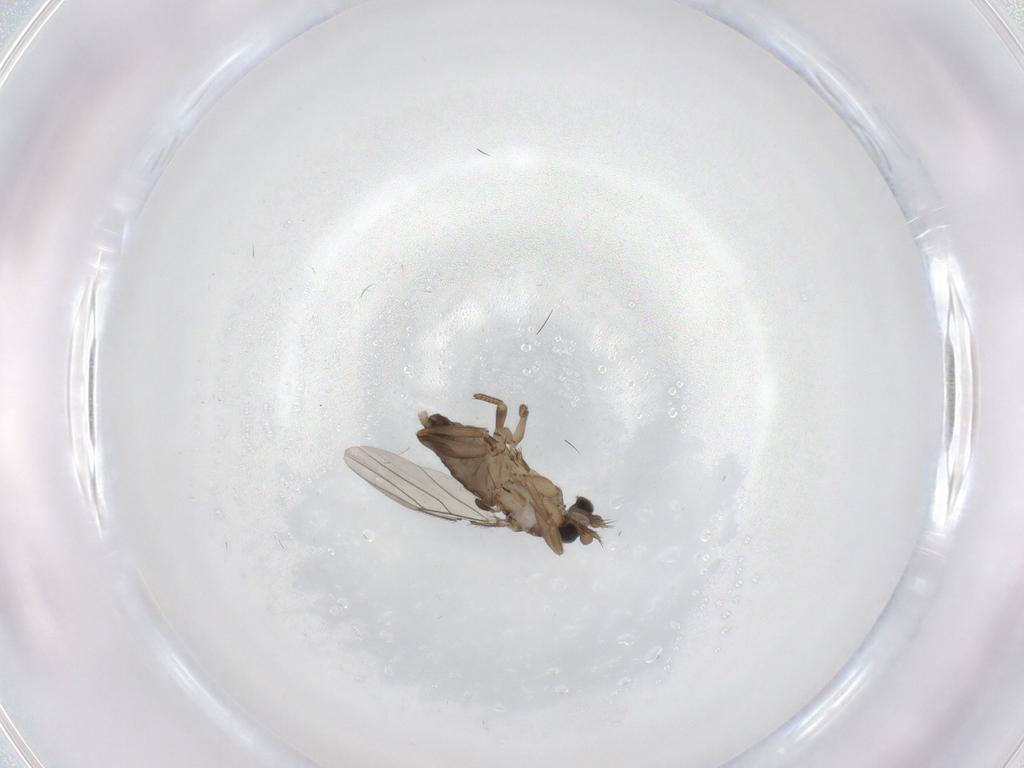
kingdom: Animalia
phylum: Arthropoda
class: Insecta
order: Diptera
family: Phoridae
